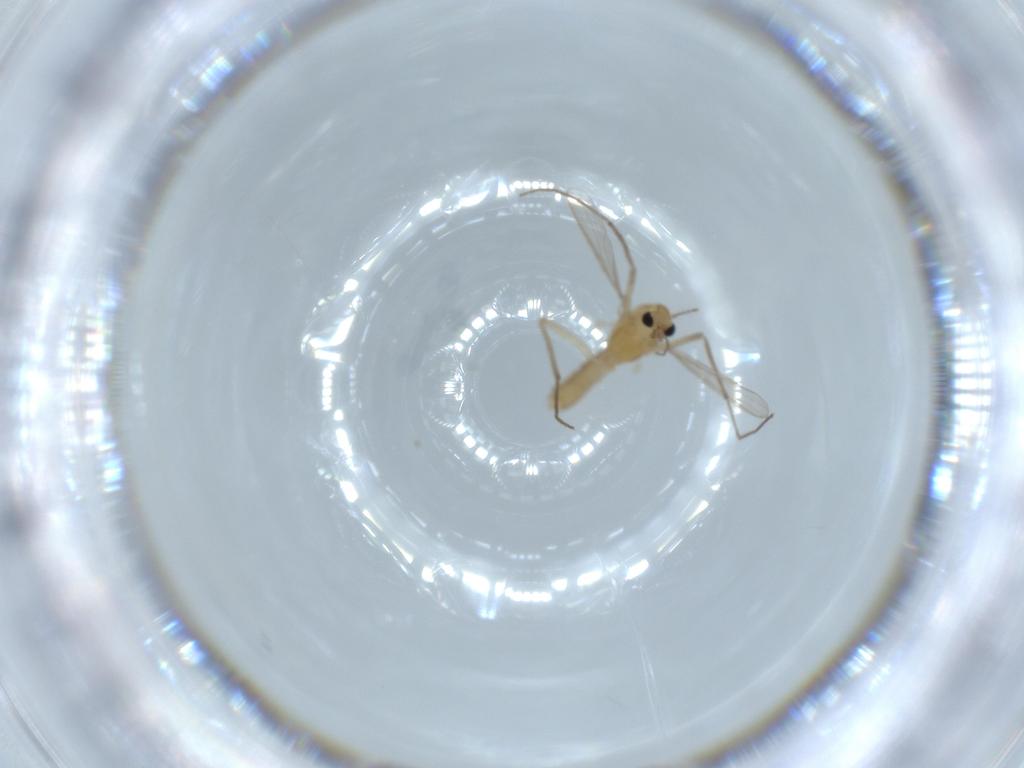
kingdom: Animalia
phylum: Arthropoda
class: Insecta
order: Diptera
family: Chironomidae
